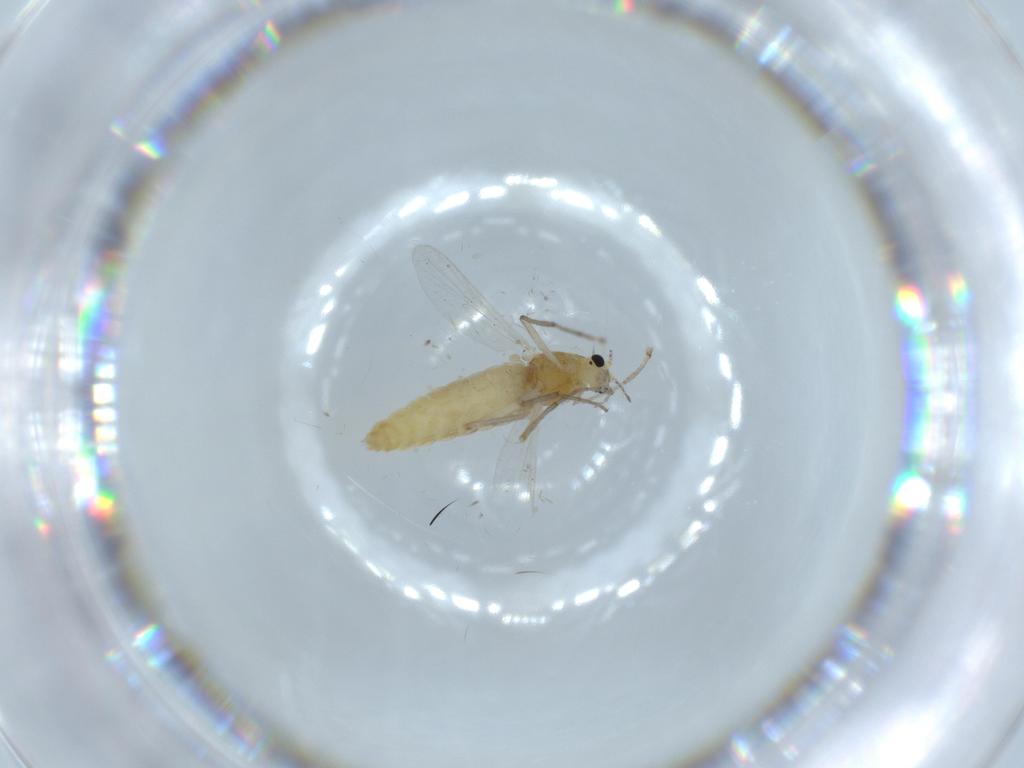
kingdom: Animalia
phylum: Arthropoda
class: Insecta
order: Diptera
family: Chironomidae
